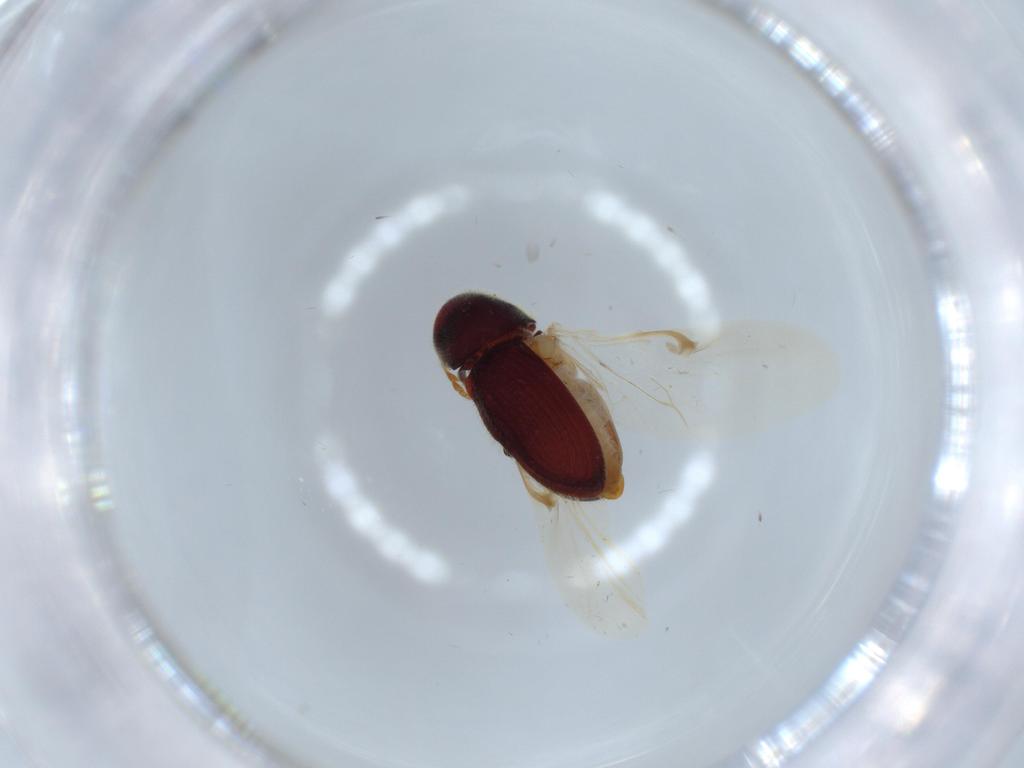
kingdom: Animalia
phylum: Arthropoda
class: Insecta
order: Coleoptera
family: Ptinidae
